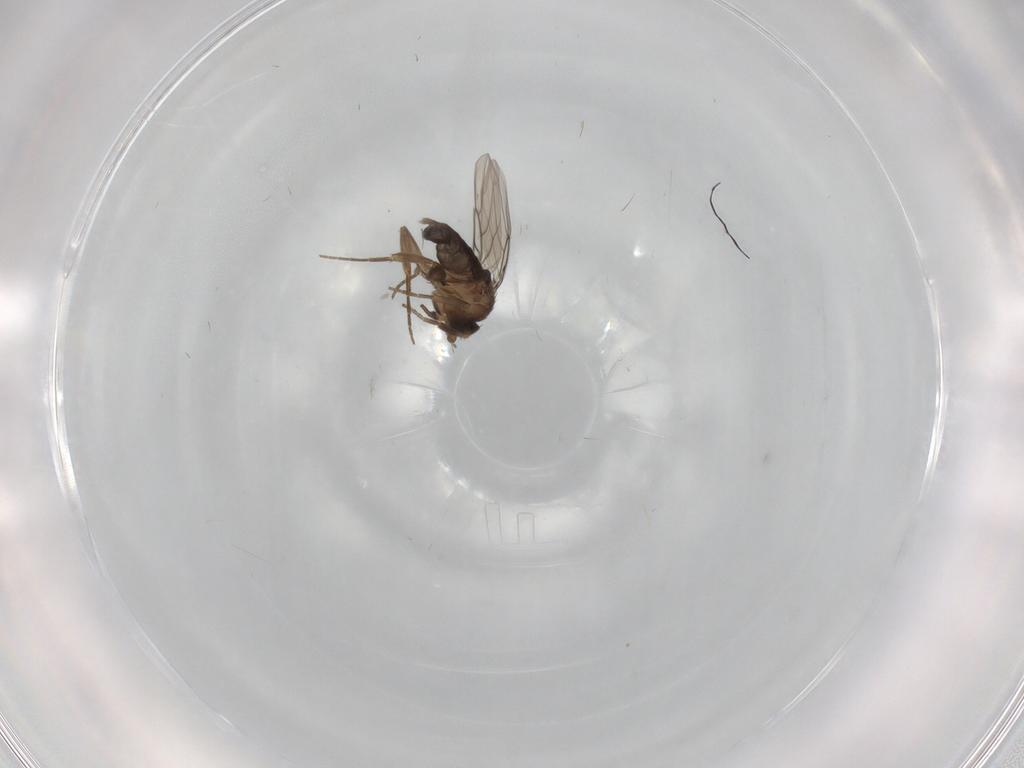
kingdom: Animalia
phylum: Arthropoda
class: Insecta
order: Diptera
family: Phoridae
